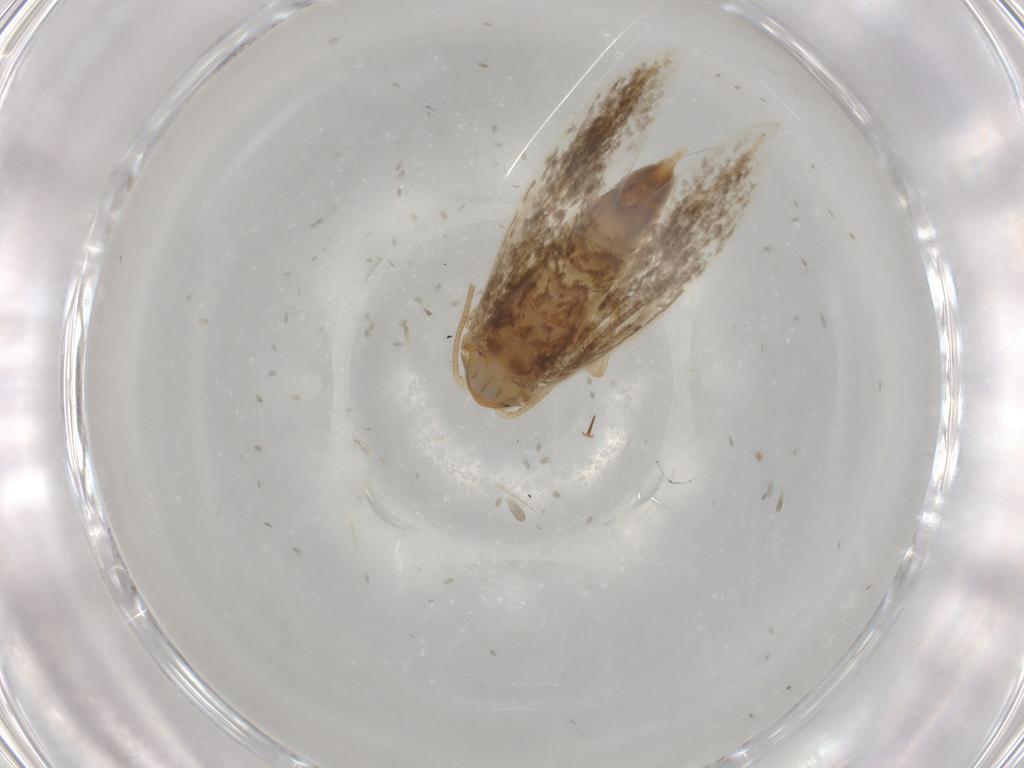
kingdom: Animalia
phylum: Arthropoda
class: Insecta
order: Lepidoptera
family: Tineidae
